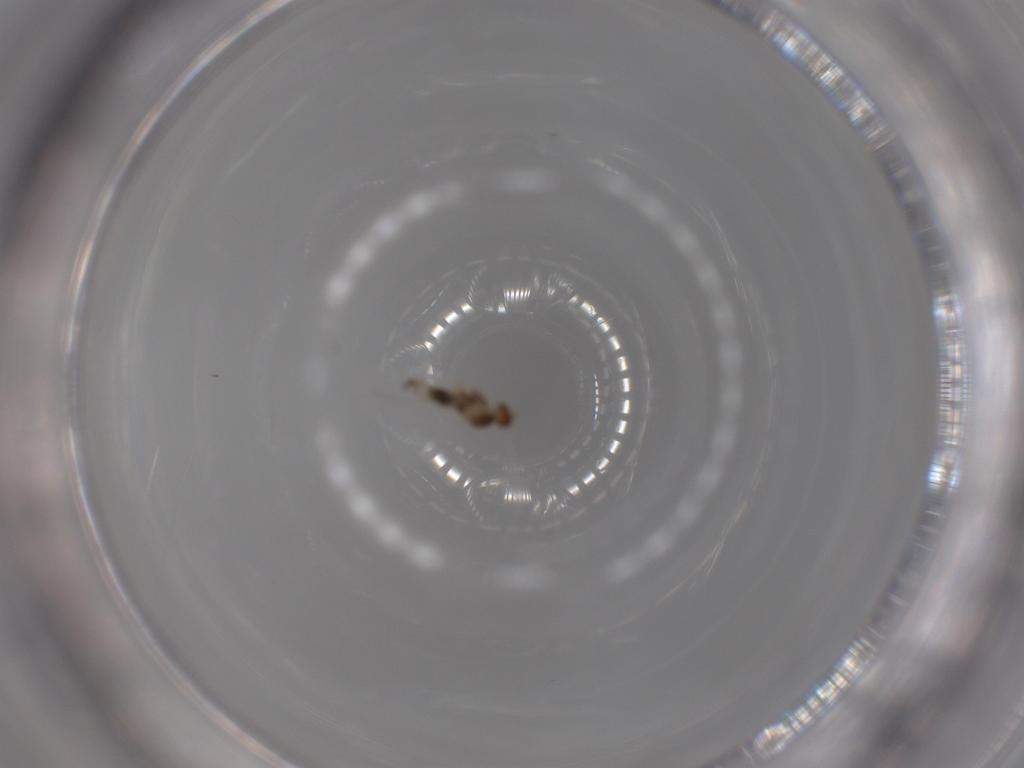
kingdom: Animalia
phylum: Arthropoda
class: Insecta
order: Diptera
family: Cecidomyiidae
